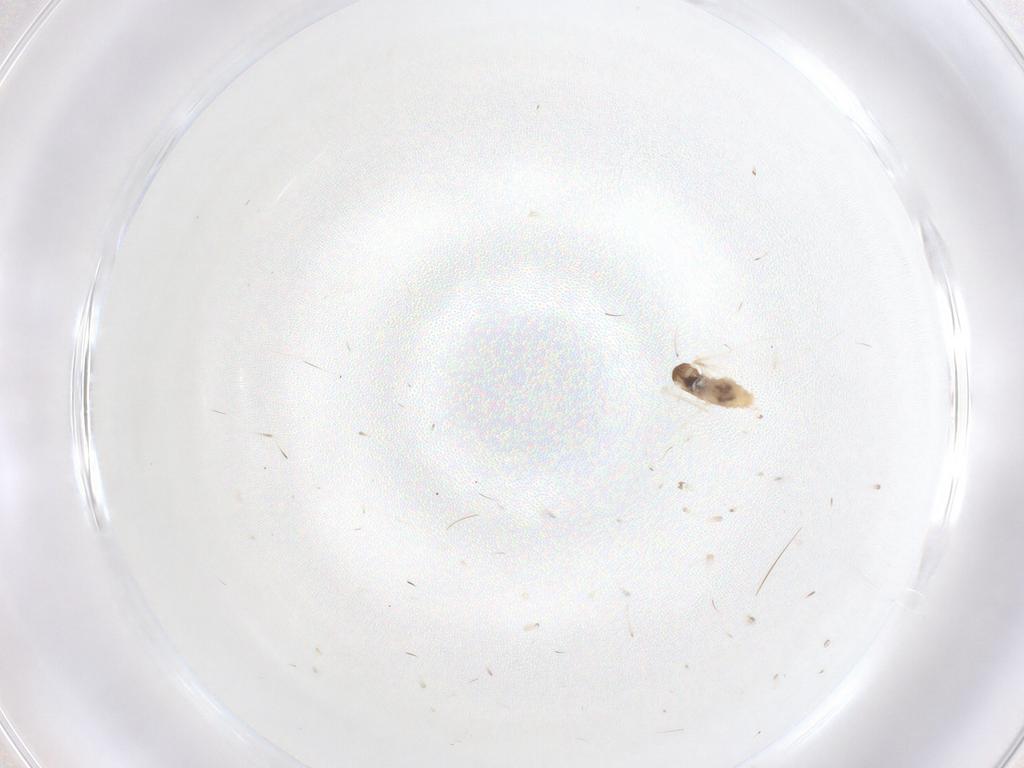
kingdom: Animalia
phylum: Arthropoda
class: Insecta
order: Diptera
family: Cecidomyiidae
